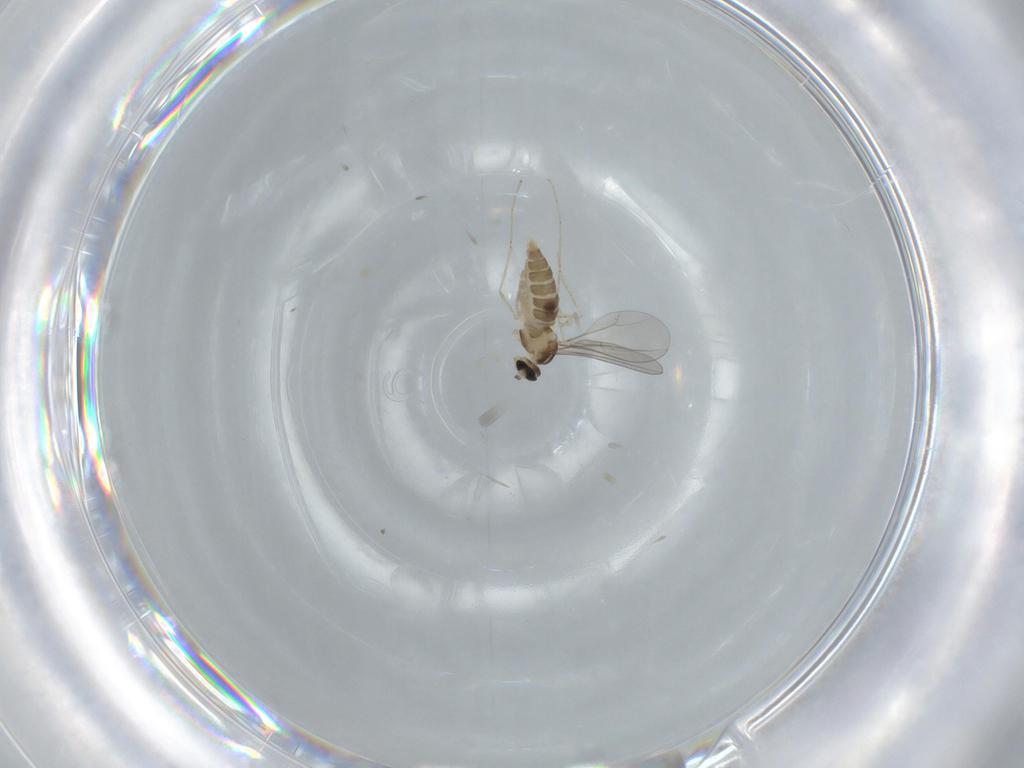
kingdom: Animalia
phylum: Arthropoda
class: Insecta
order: Diptera
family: Cecidomyiidae
